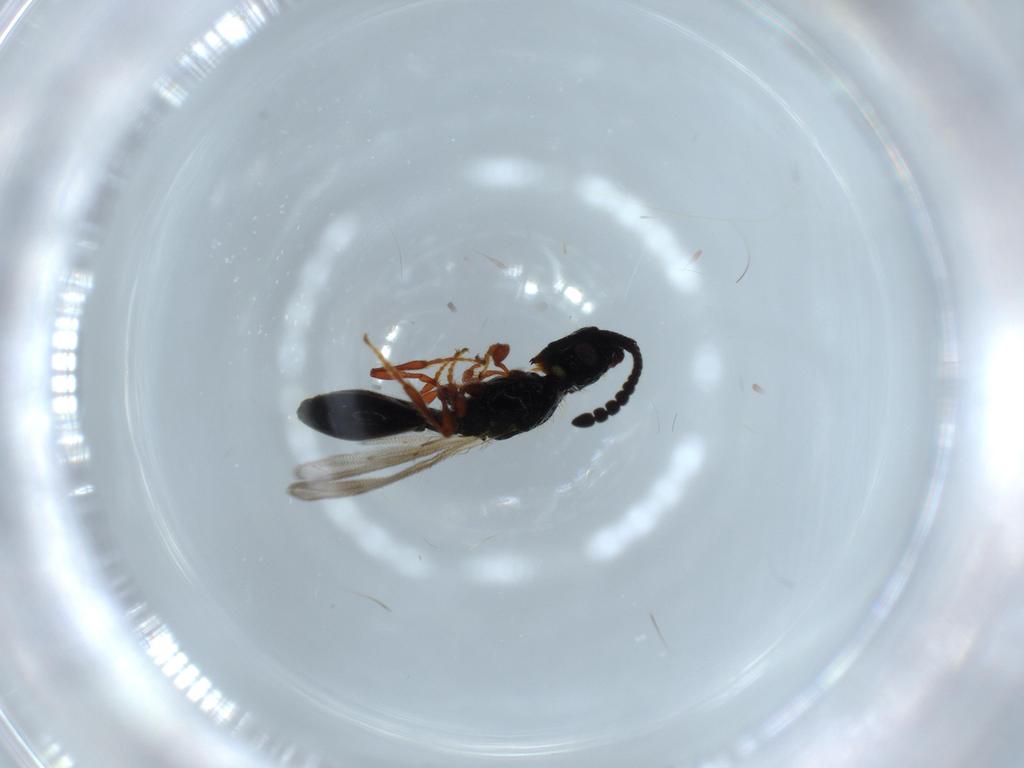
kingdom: Animalia
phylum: Arthropoda
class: Insecta
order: Hymenoptera
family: Diapriidae
